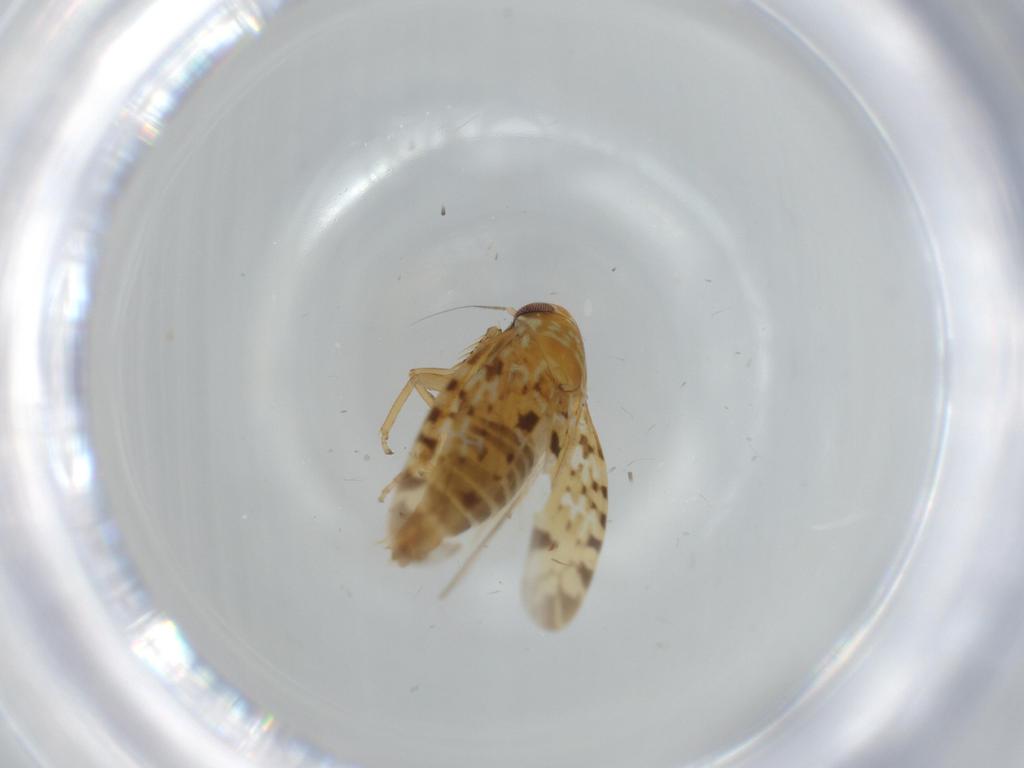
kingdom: Animalia
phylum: Arthropoda
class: Insecta
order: Hemiptera
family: Cicadellidae
